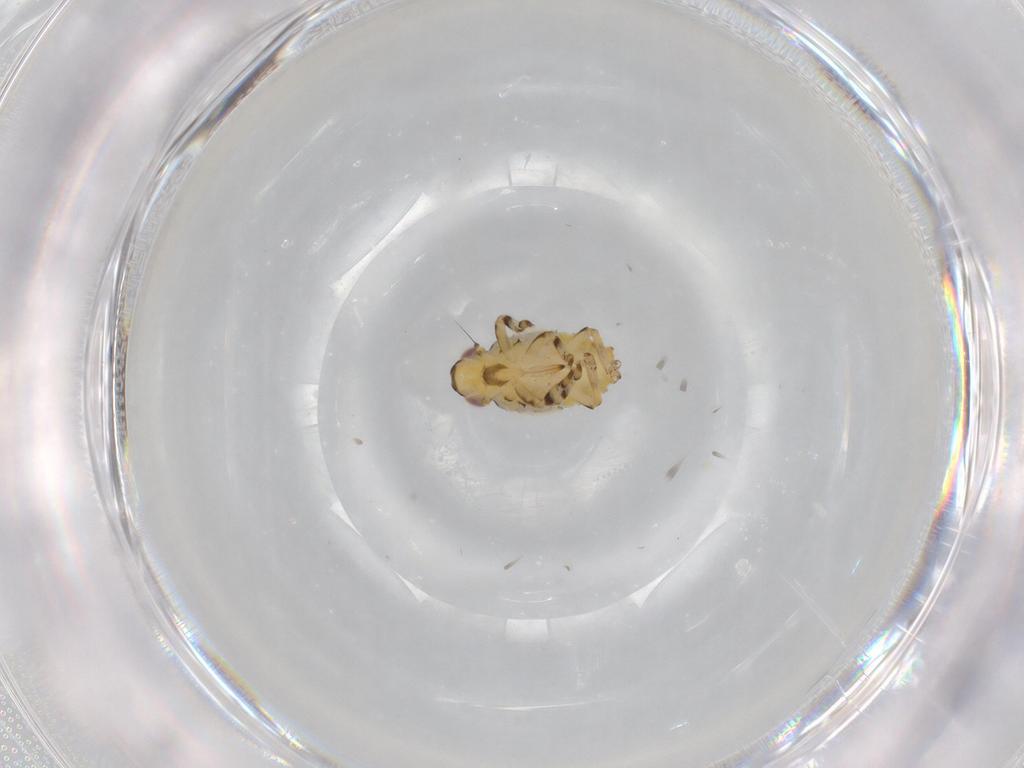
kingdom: Animalia
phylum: Arthropoda
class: Insecta
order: Hemiptera
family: Issidae
